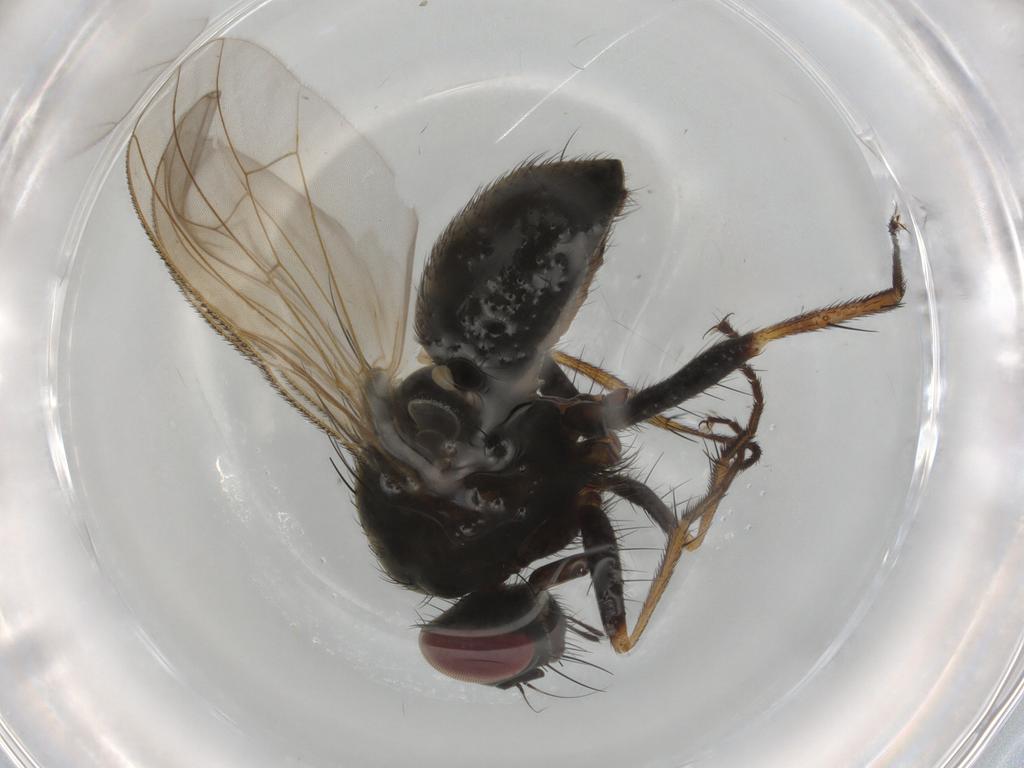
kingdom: Animalia
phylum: Arthropoda
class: Insecta
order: Diptera
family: Muscidae
